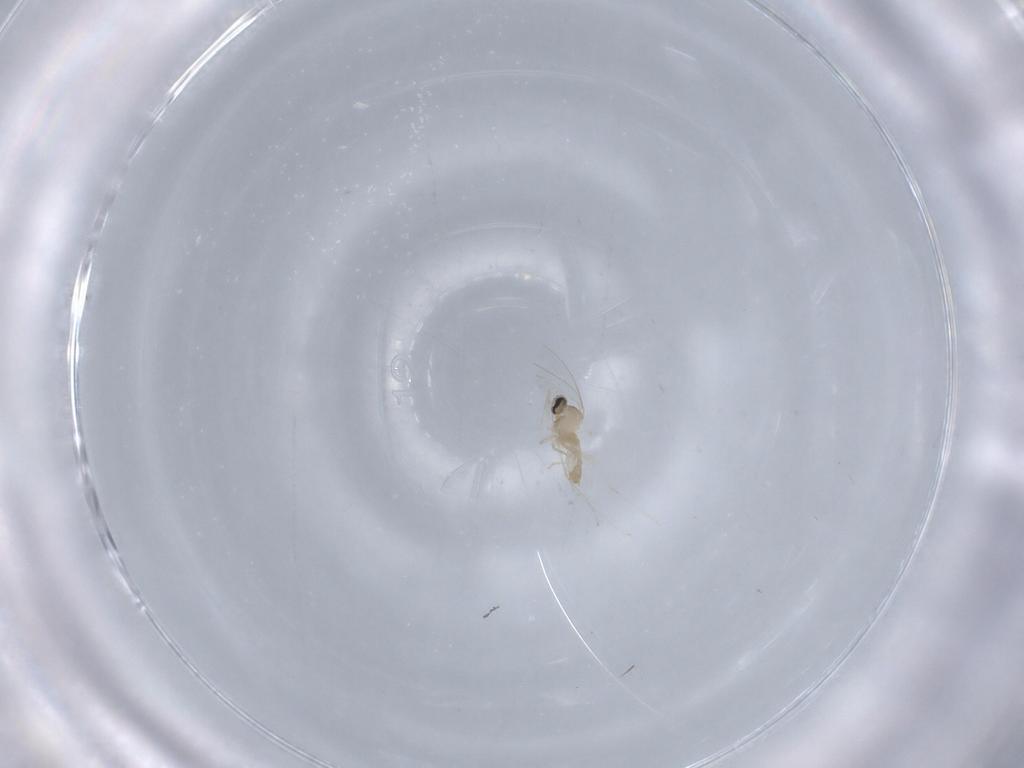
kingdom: Animalia
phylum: Arthropoda
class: Insecta
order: Diptera
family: Cecidomyiidae
